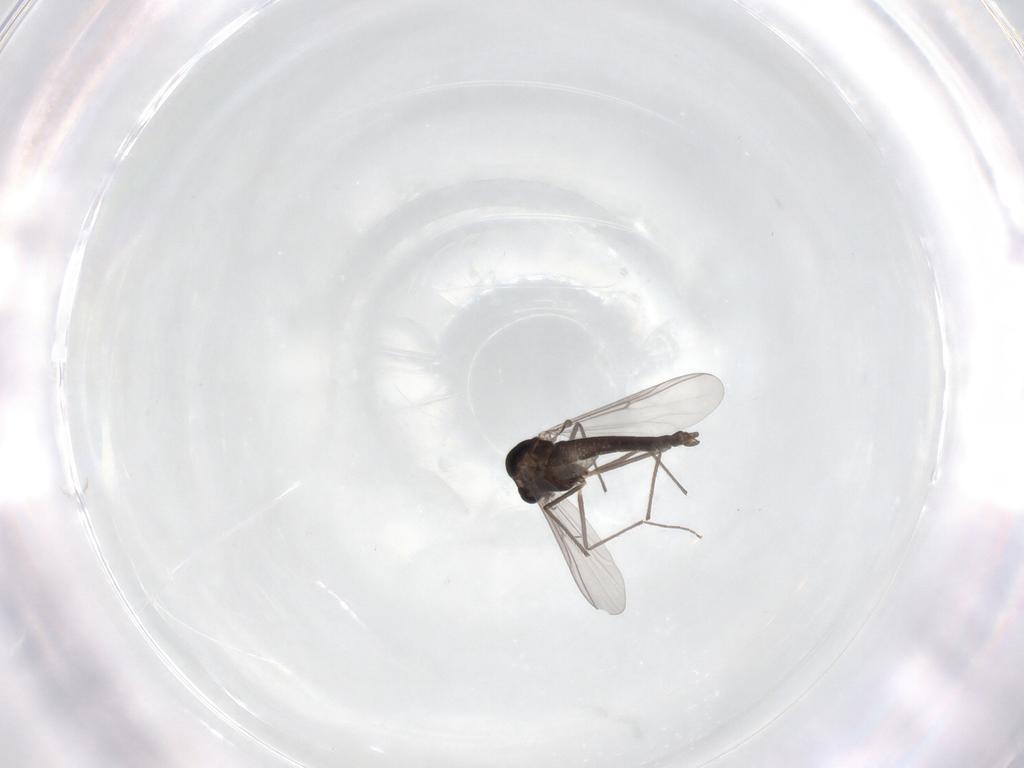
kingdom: Animalia
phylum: Arthropoda
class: Insecta
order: Diptera
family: Chironomidae
